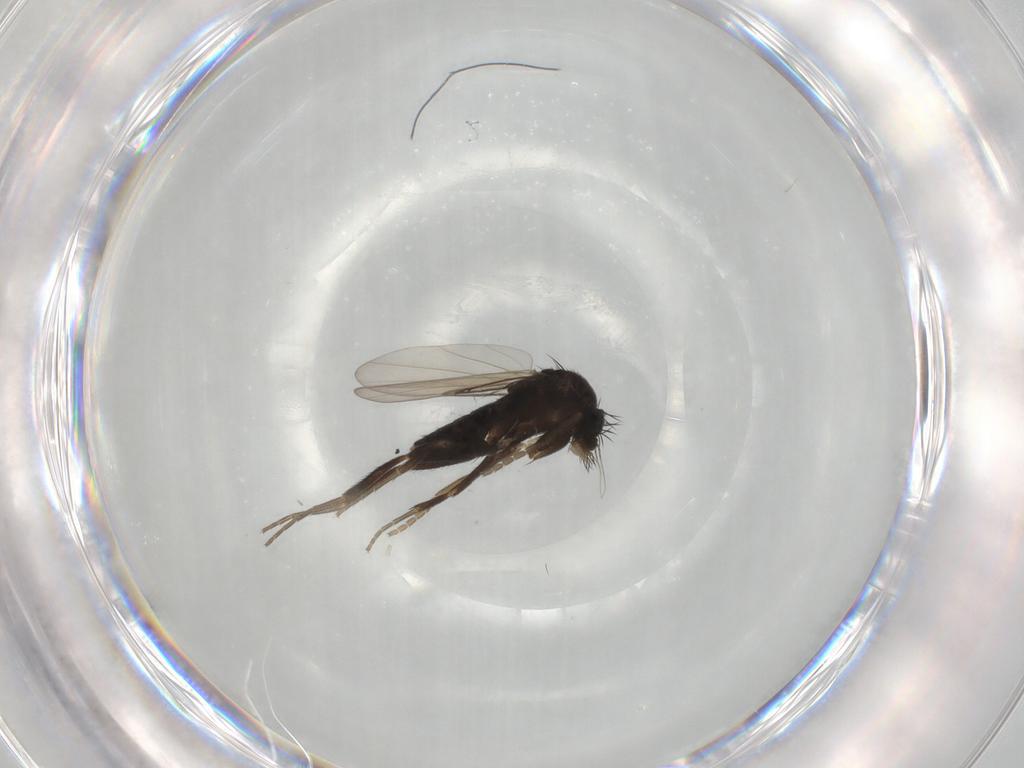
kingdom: Animalia
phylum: Arthropoda
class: Insecta
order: Diptera
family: Phoridae
